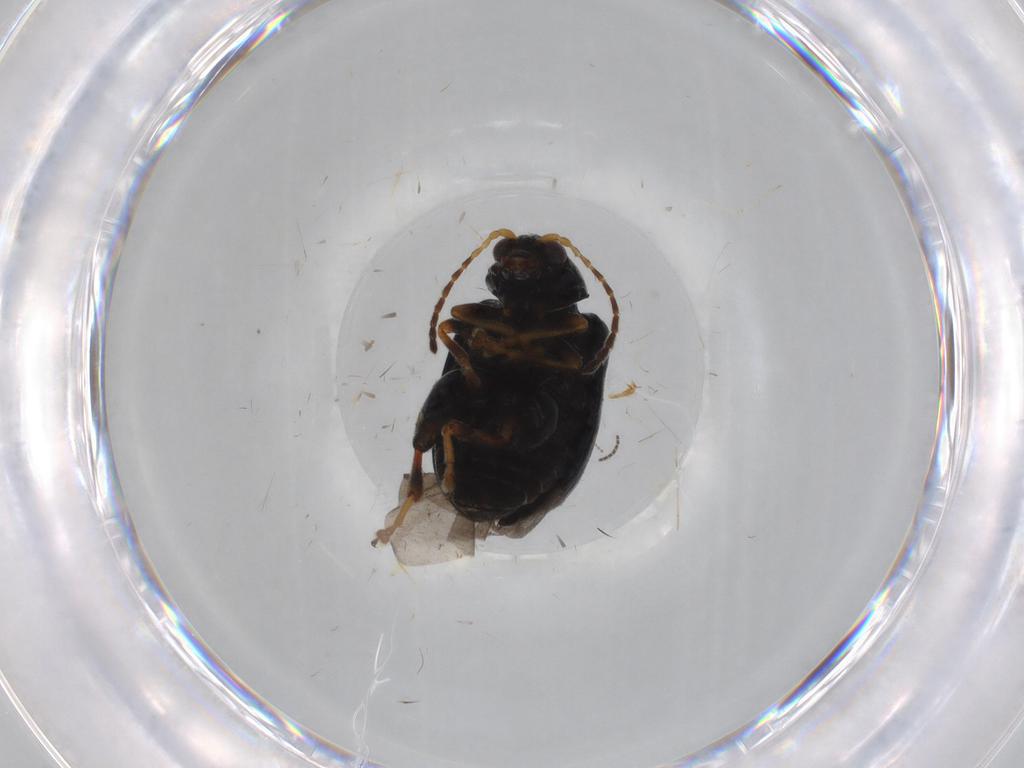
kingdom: Animalia
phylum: Arthropoda
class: Insecta
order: Coleoptera
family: Chrysomelidae
